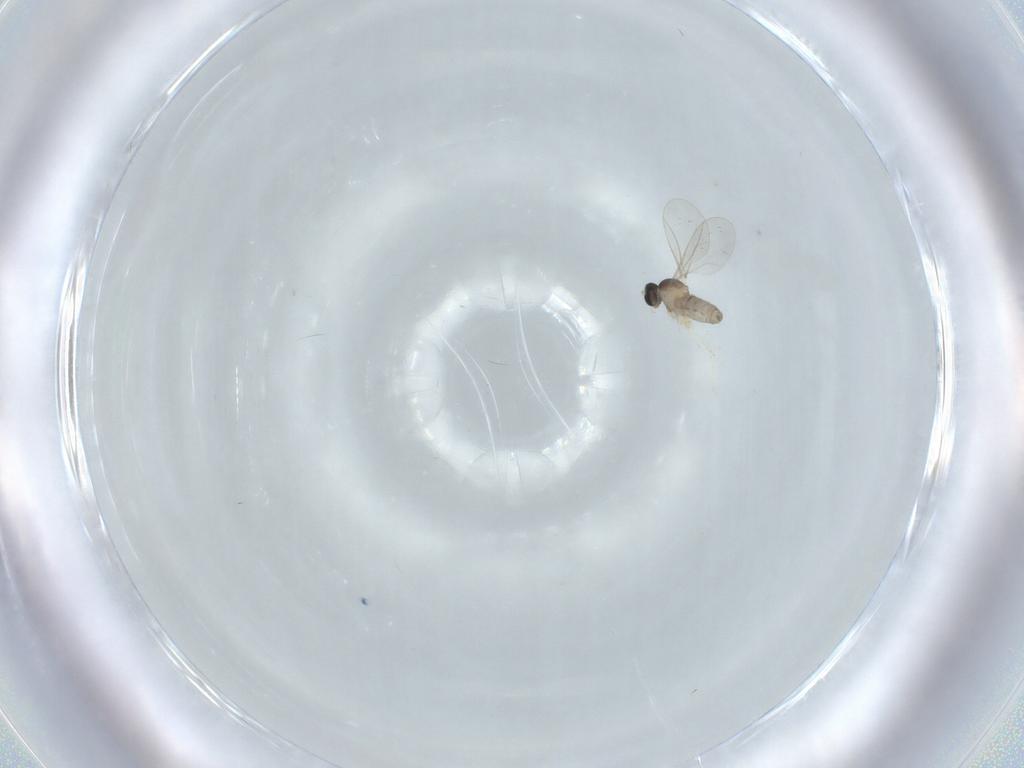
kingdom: Animalia
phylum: Arthropoda
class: Insecta
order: Diptera
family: Cecidomyiidae
